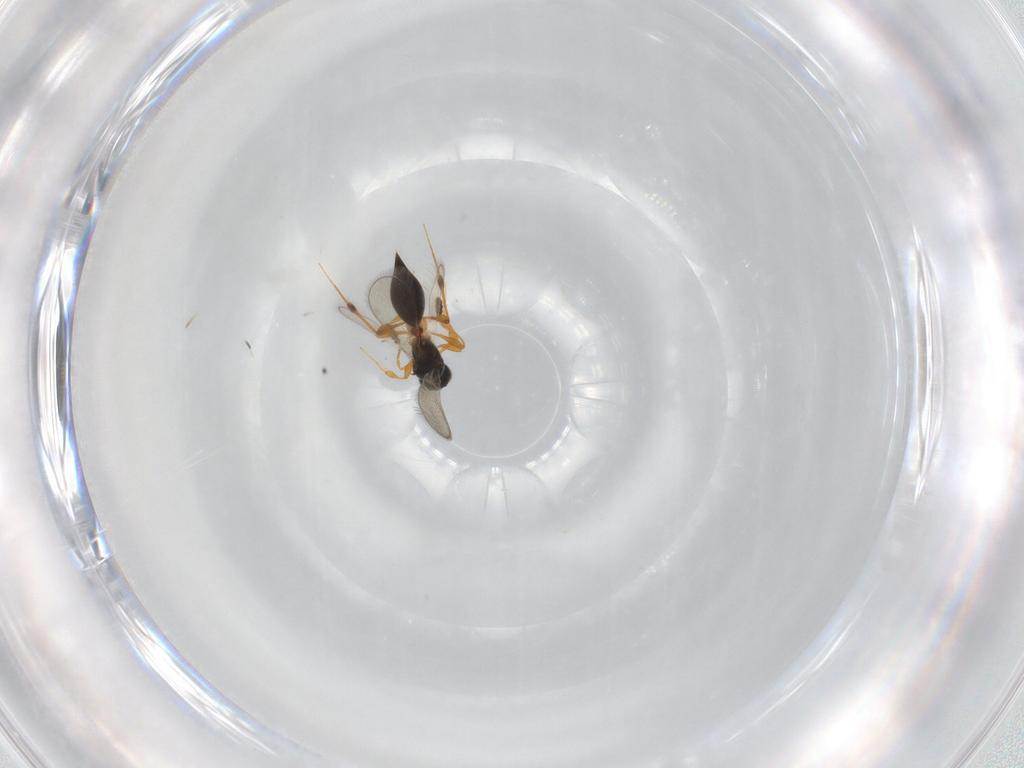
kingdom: Animalia
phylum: Arthropoda
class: Insecta
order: Hymenoptera
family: Platygastridae
